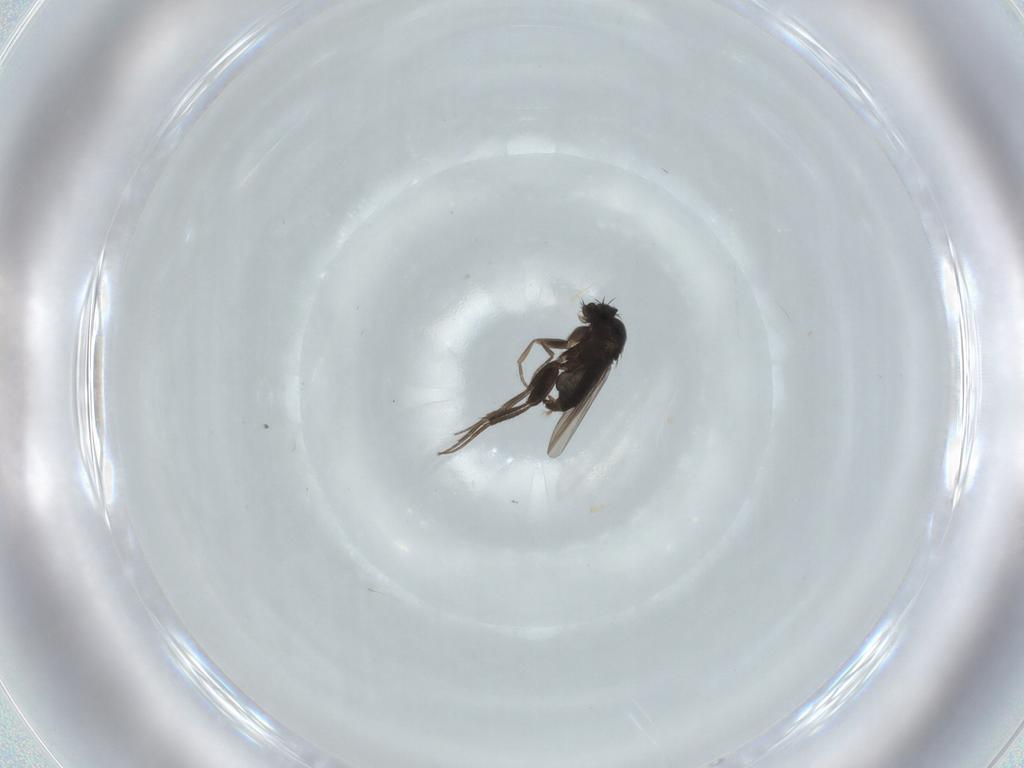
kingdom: Animalia
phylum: Arthropoda
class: Insecta
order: Diptera
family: Phoridae
